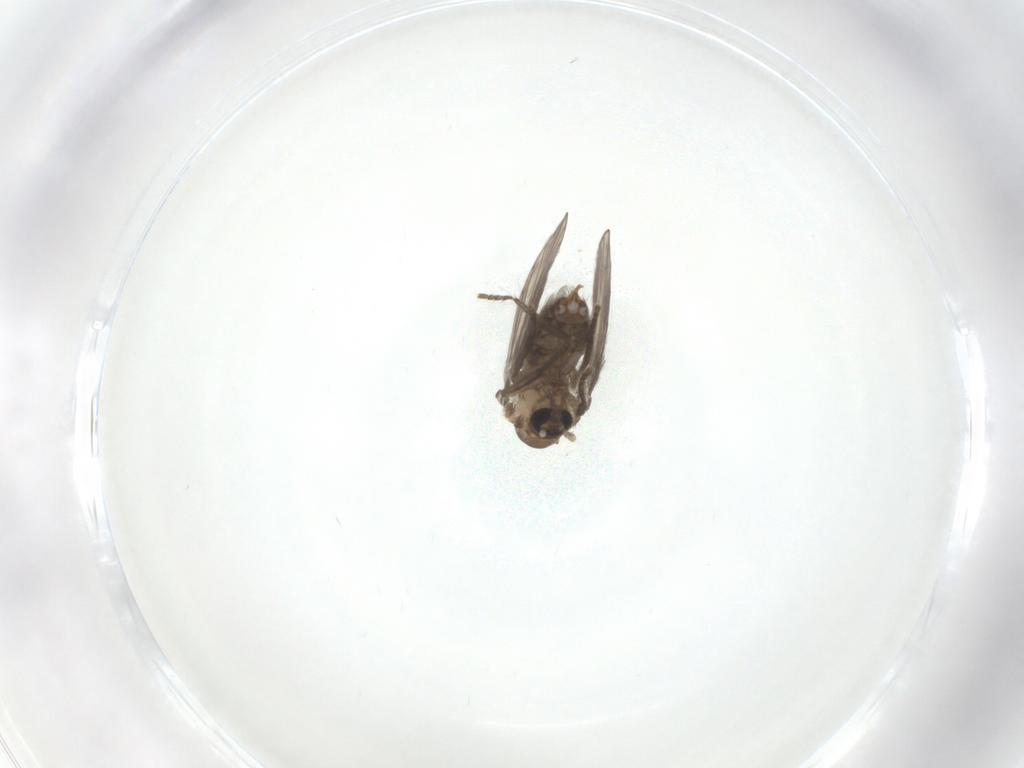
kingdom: Animalia
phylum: Arthropoda
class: Insecta
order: Diptera
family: Psychodidae
